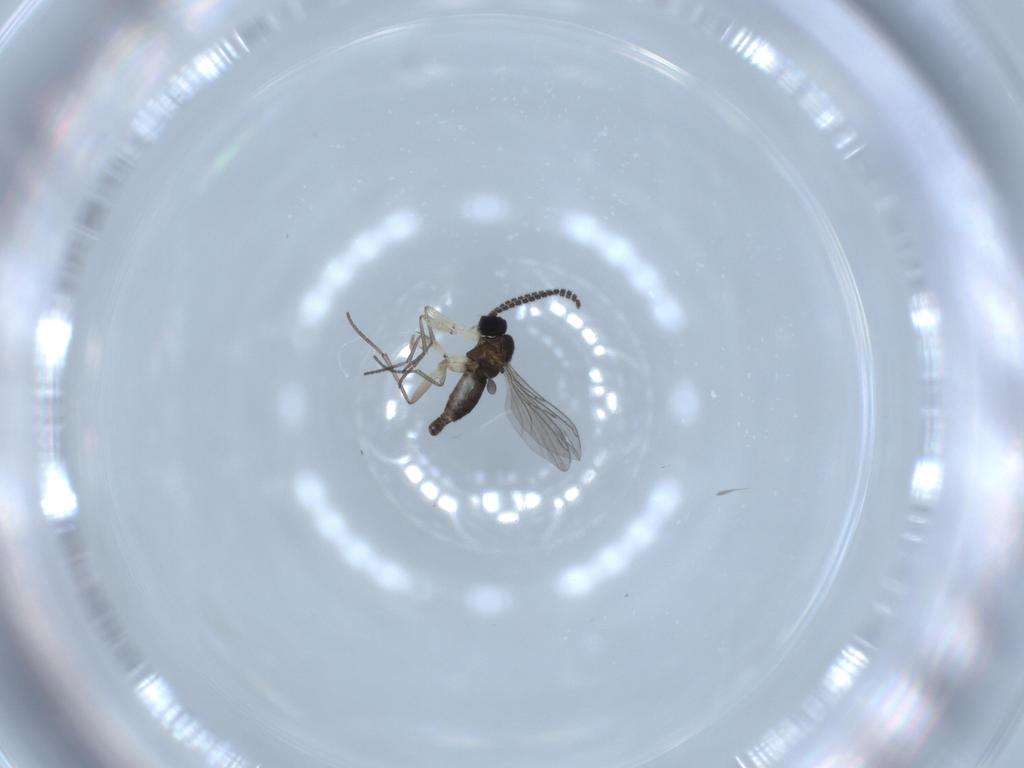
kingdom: Animalia
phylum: Arthropoda
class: Insecta
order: Diptera
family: Sciaridae
